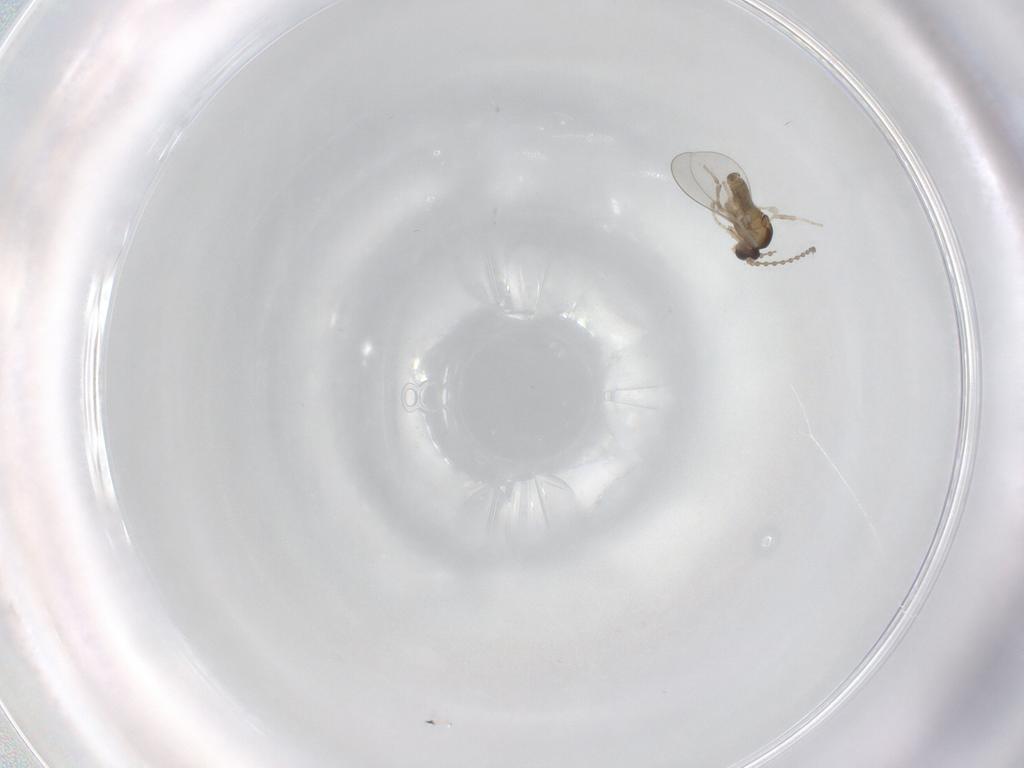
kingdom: Animalia
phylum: Arthropoda
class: Insecta
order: Diptera
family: Cecidomyiidae
